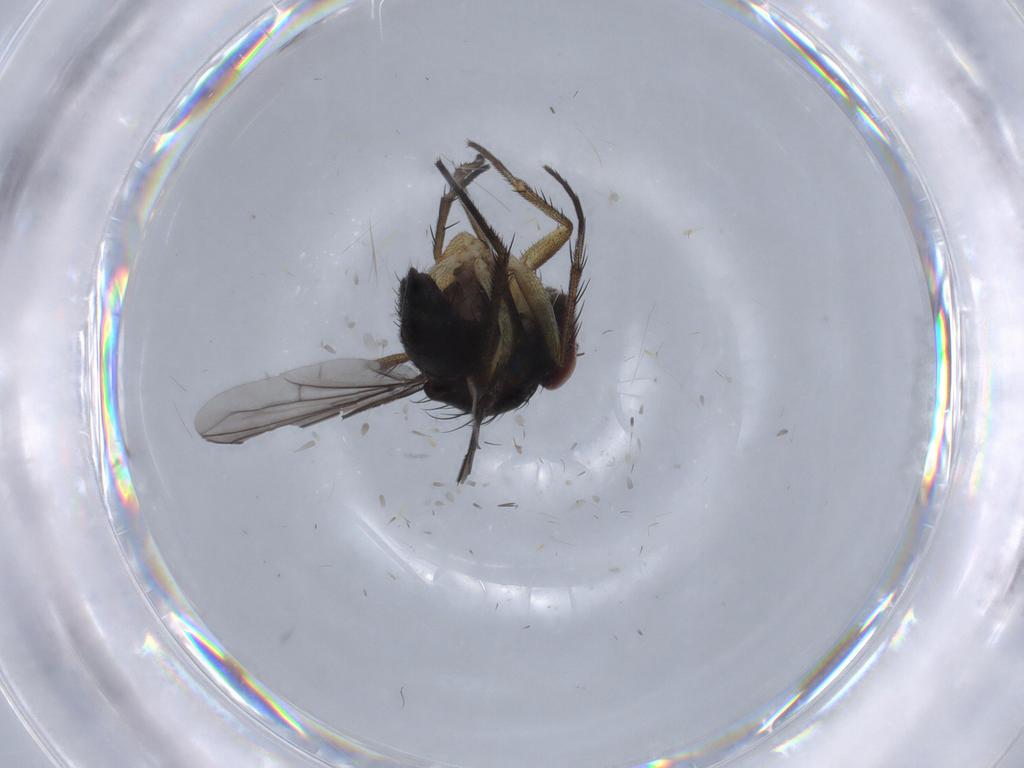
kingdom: Animalia
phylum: Arthropoda
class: Insecta
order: Diptera
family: Dolichopodidae
